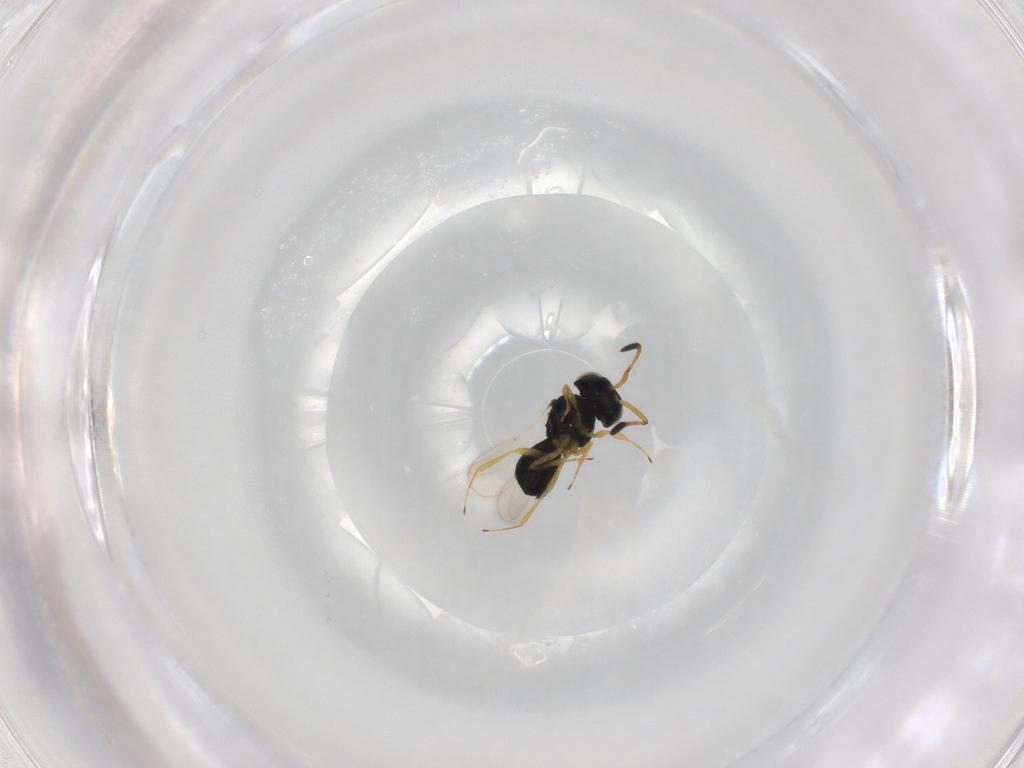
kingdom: Animalia
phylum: Arthropoda
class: Insecta
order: Hymenoptera
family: Scelionidae
